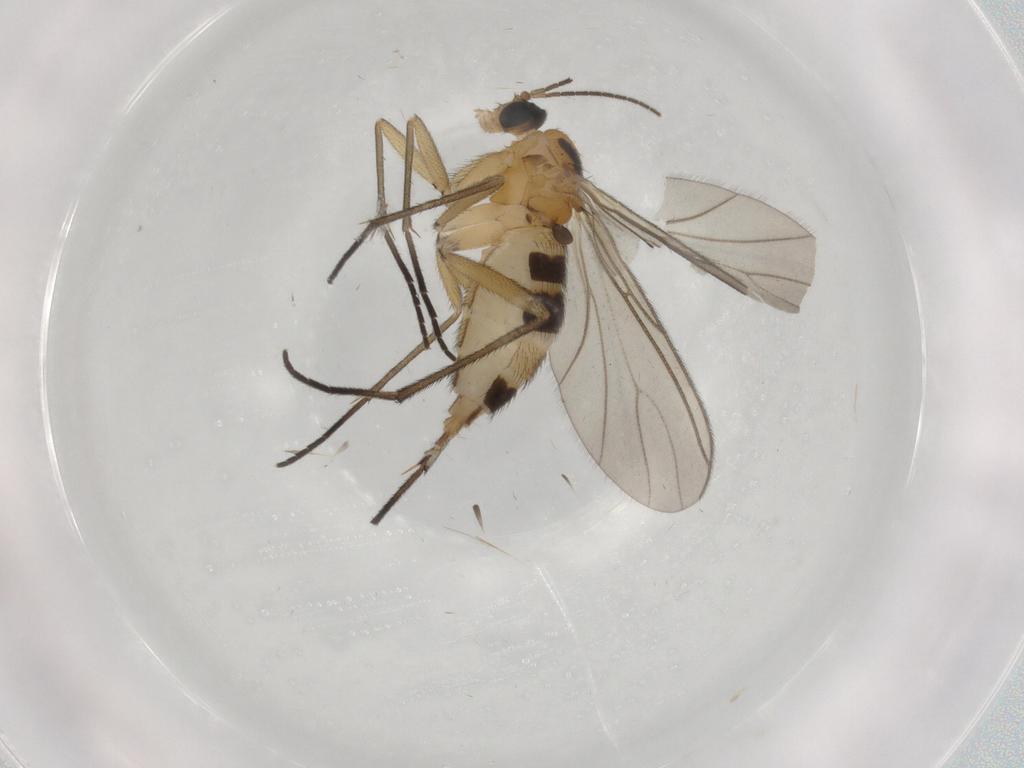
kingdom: Animalia
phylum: Arthropoda
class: Insecta
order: Diptera
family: Sciaridae
